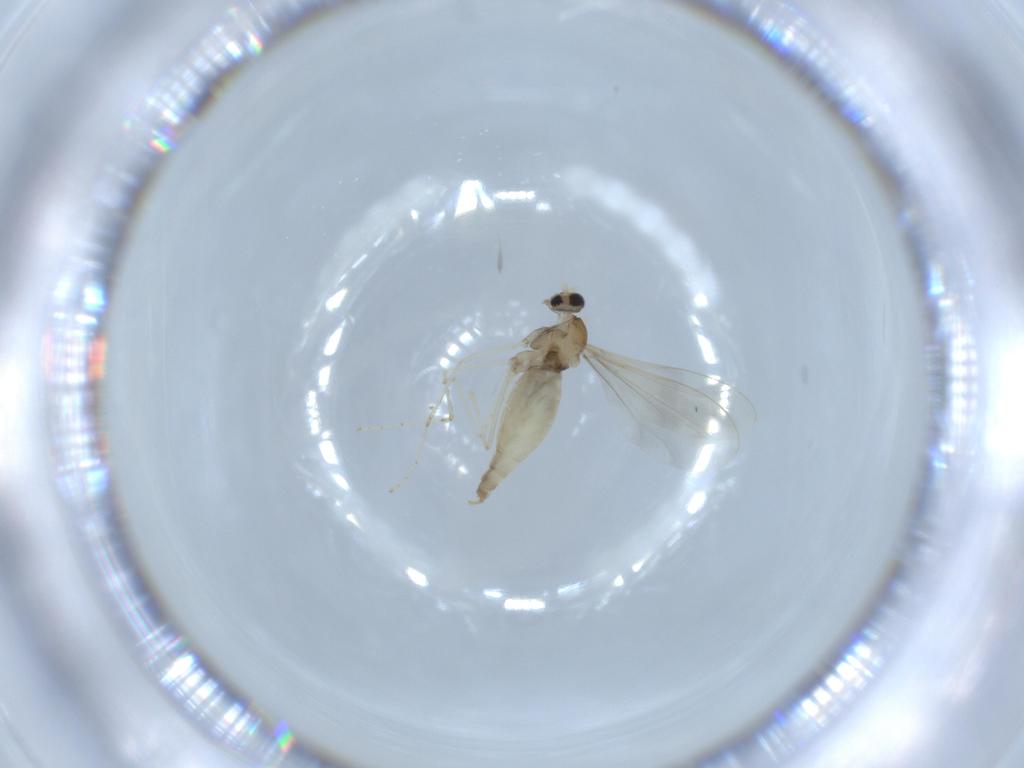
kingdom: Animalia
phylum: Arthropoda
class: Insecta
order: Diptera
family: Cecidomyiidae
